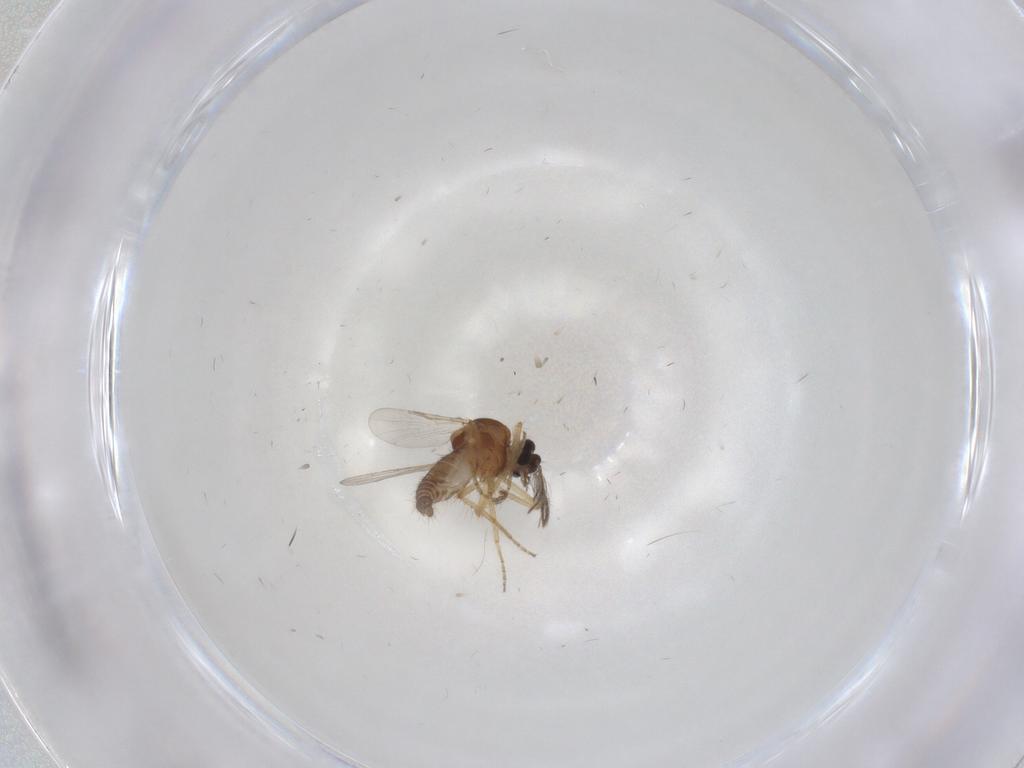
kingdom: Animalia
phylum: Arthropoda
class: Insecta
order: Diptera
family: Ceratopogonidae
